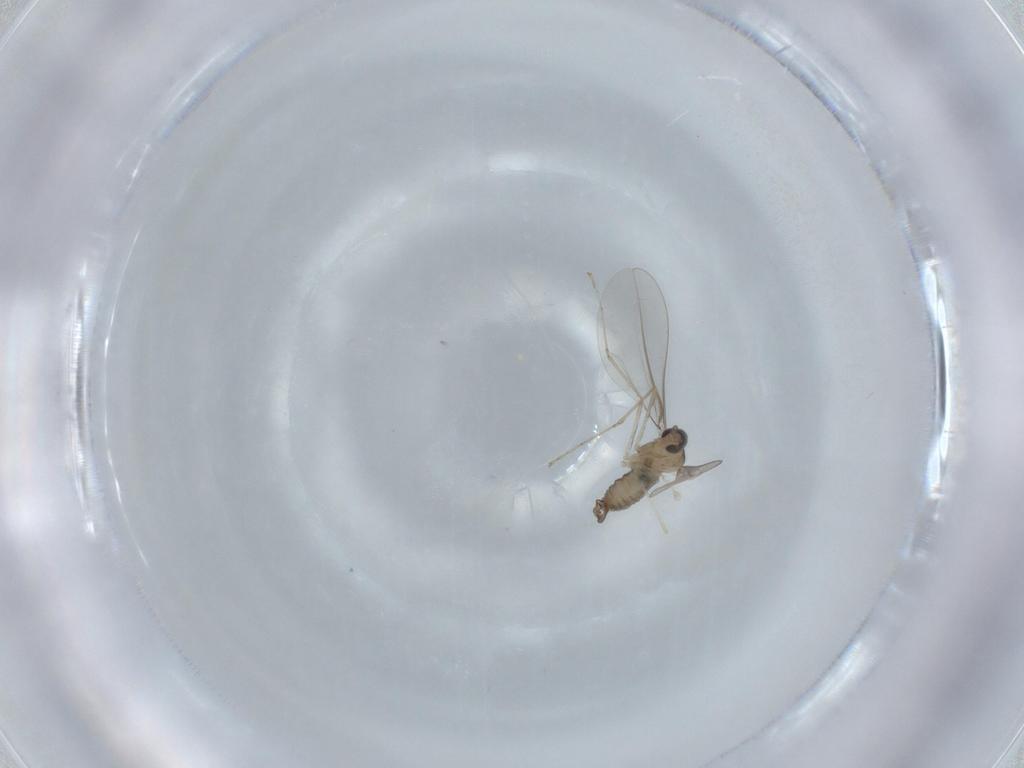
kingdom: Animalia
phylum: Arthropoda
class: Insecta
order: Diptera
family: Cecidomyiidae
